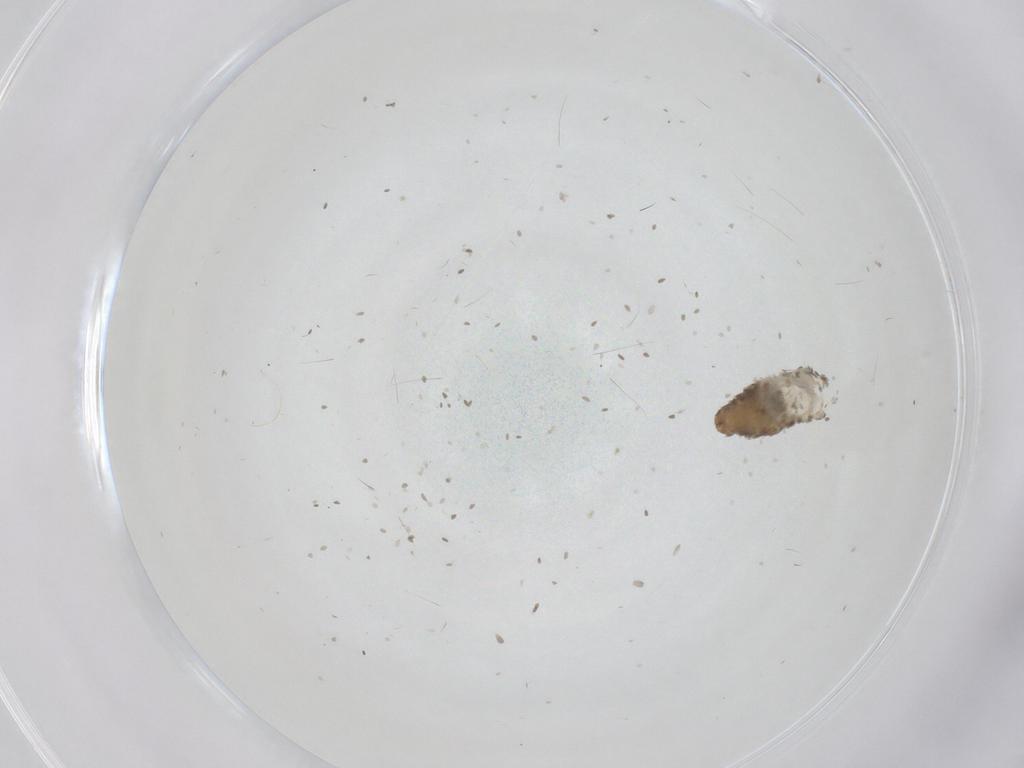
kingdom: Animalia
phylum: Arthropoda
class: Insecta
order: Lepidoptera
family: Psychidae
